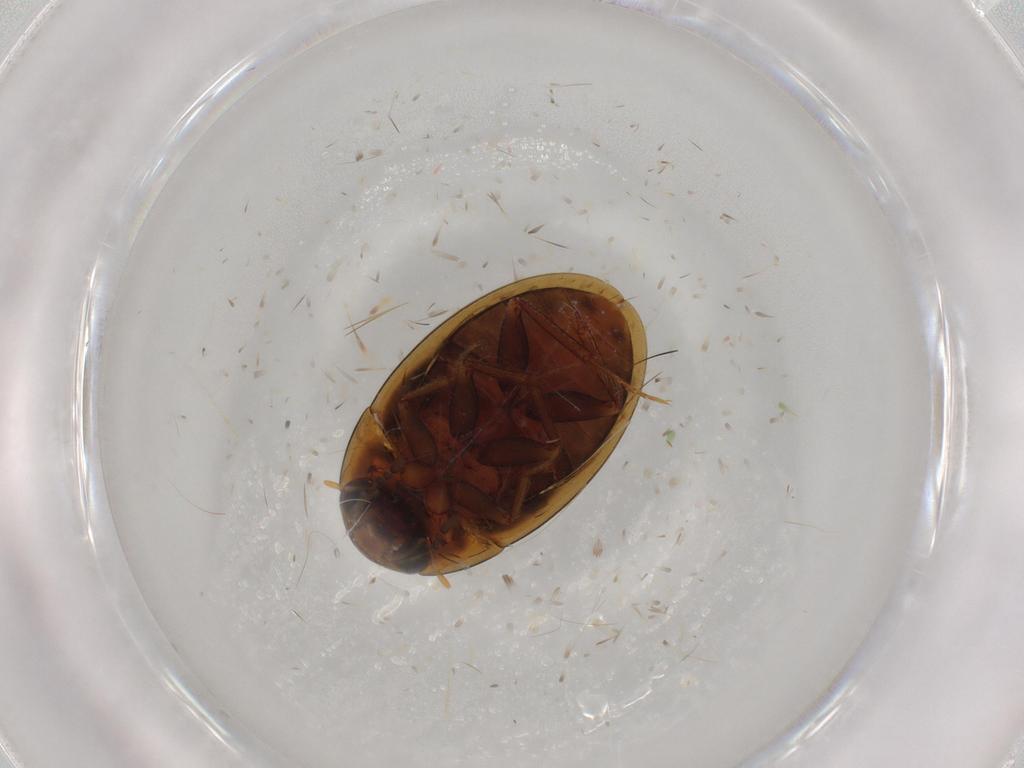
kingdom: Animalia
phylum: Arthropoda
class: Insecta
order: Coleoptera
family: Hydrophilidae
